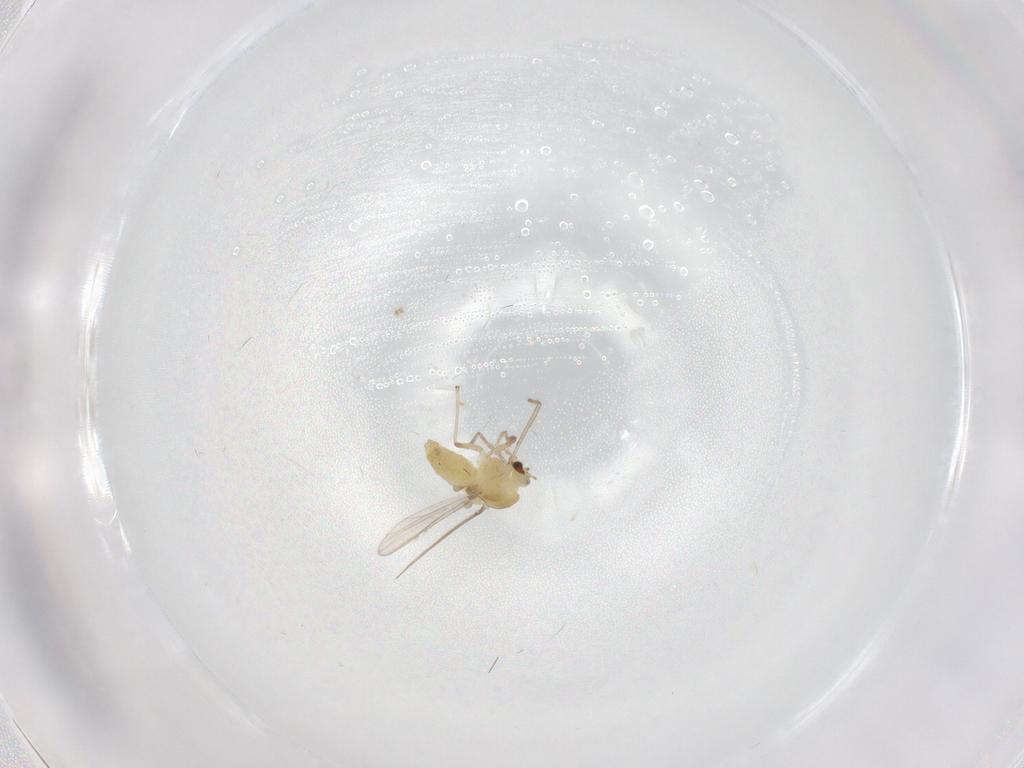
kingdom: Animalia
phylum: Arthropoda
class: Insecta
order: Diptera
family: Chironomidae
